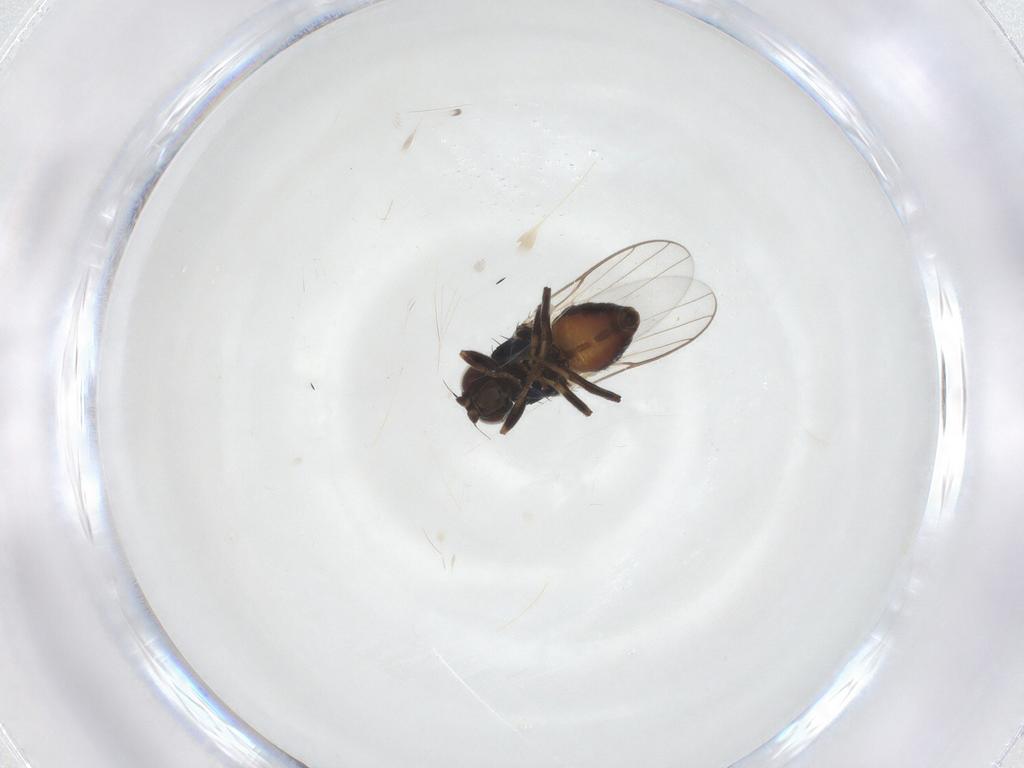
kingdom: Animalia
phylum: Arthropoda
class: Insecta
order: Diptera
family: Chloropidae
